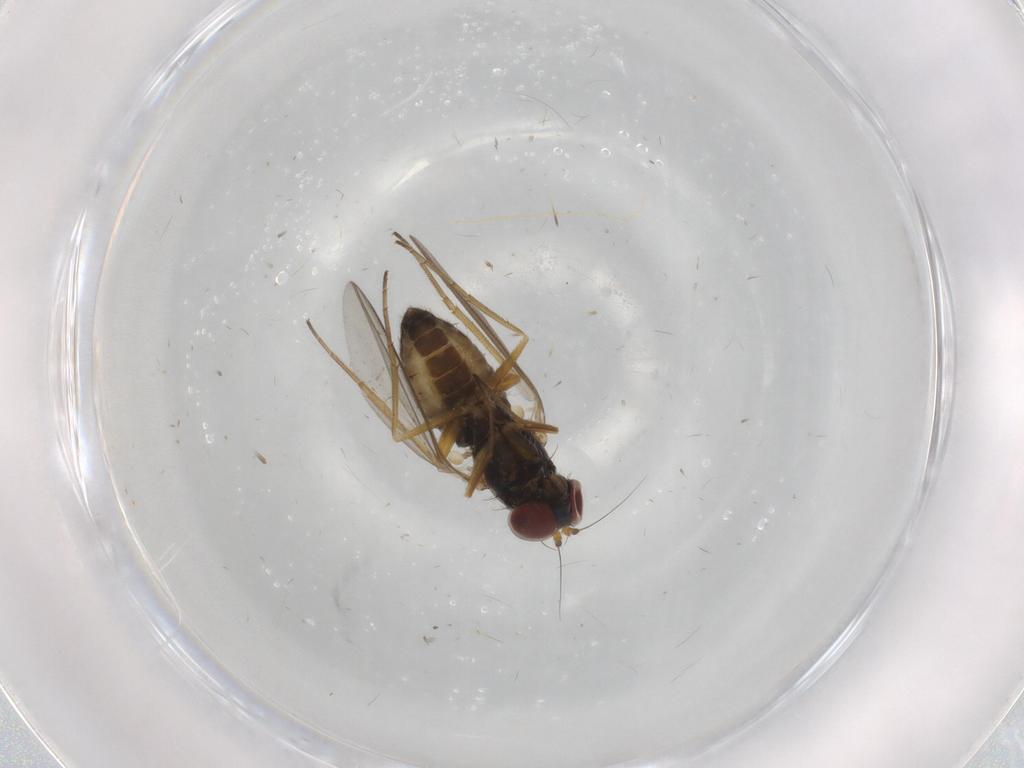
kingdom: Animalia
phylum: Arthropoda
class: Insecta
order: Diptera
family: Dolichopodidae
